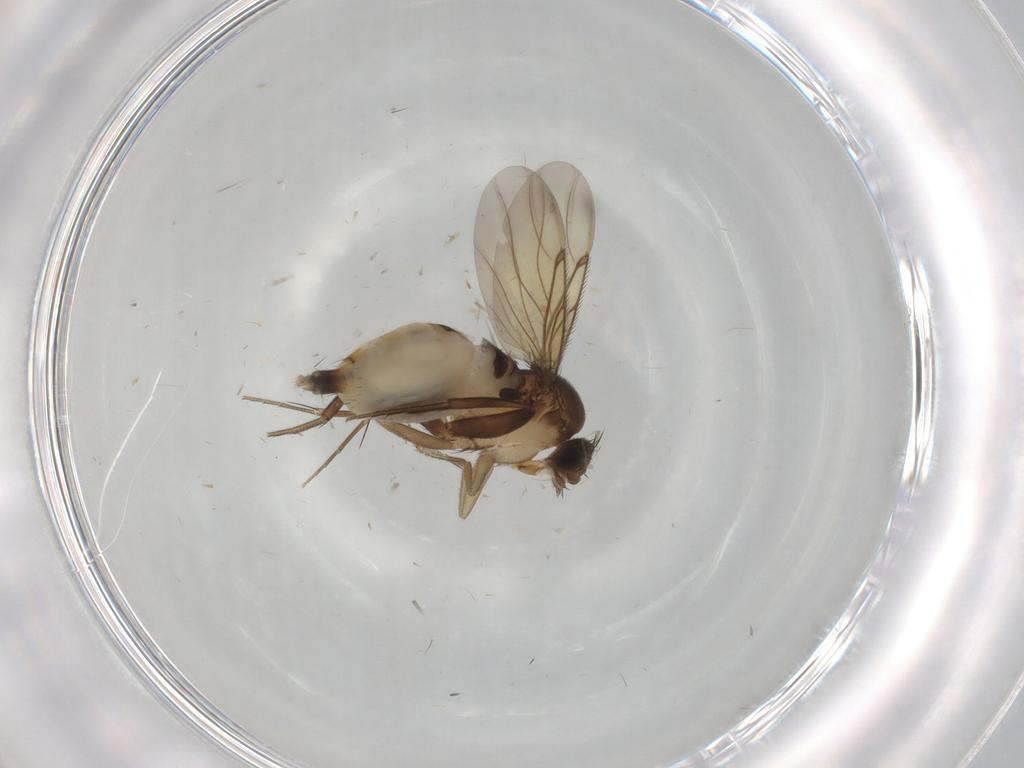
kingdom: Animalia
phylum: Arthropoda
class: Insecta
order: Diptera
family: Phoridae
